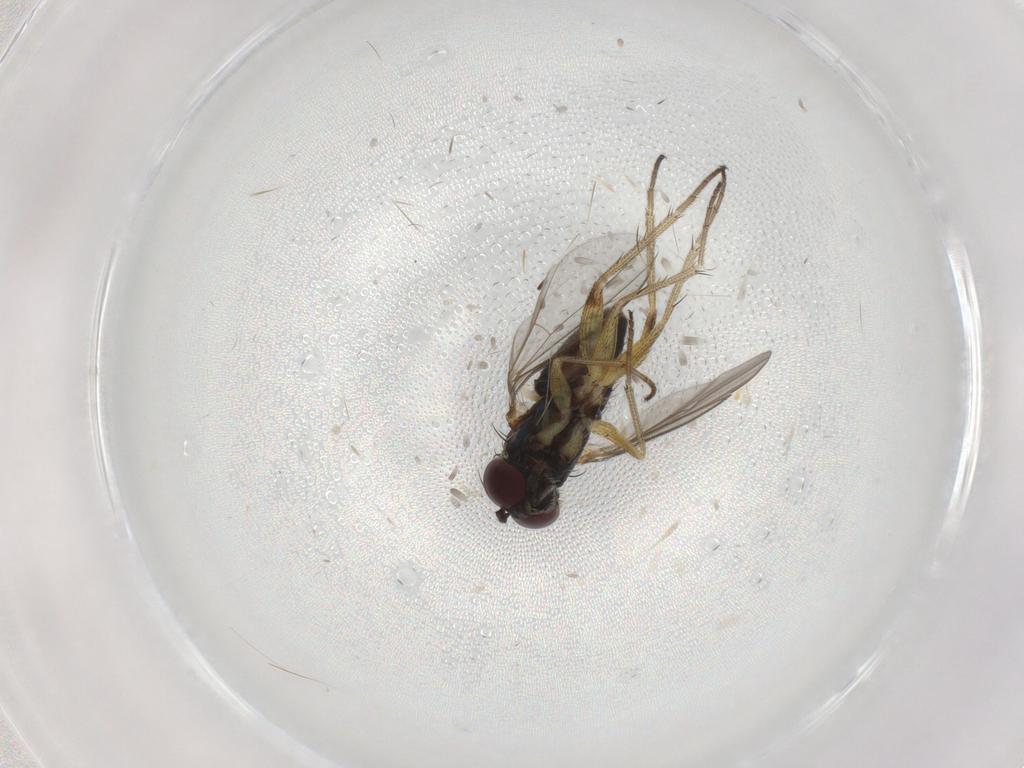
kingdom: Animalia
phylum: Arthropoda
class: Insecta
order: Diptera
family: Dolichopodidae
